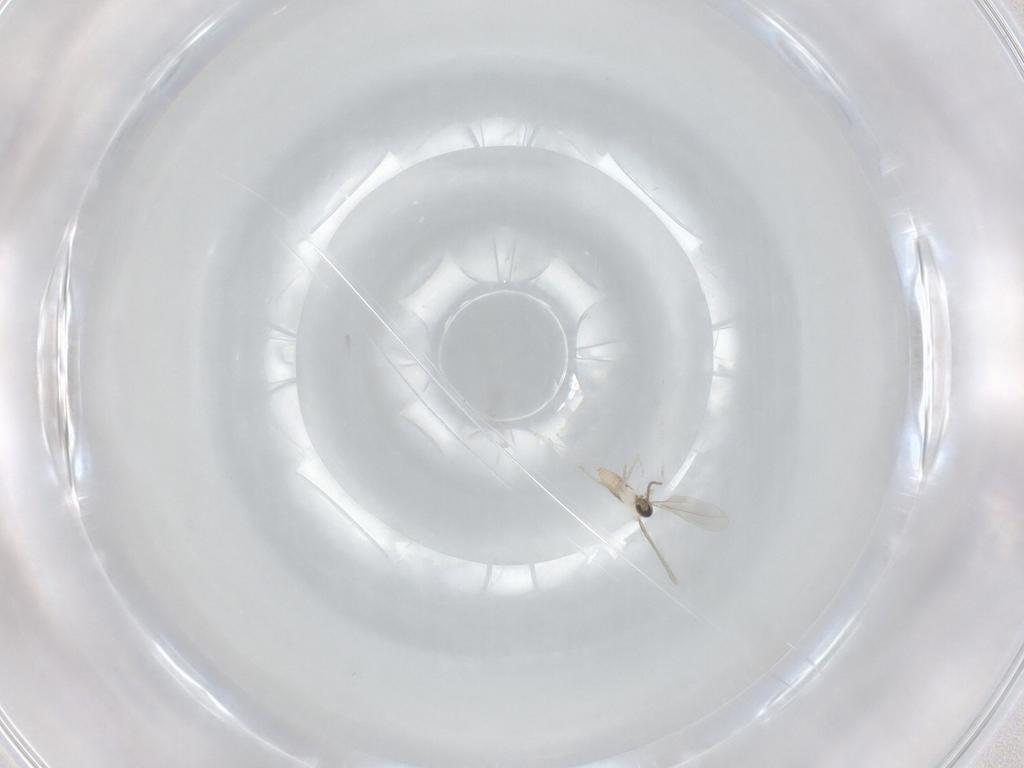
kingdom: Animalia
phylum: Arthropoda
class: Insecta
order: Diptera
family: Cecidomyiidae
